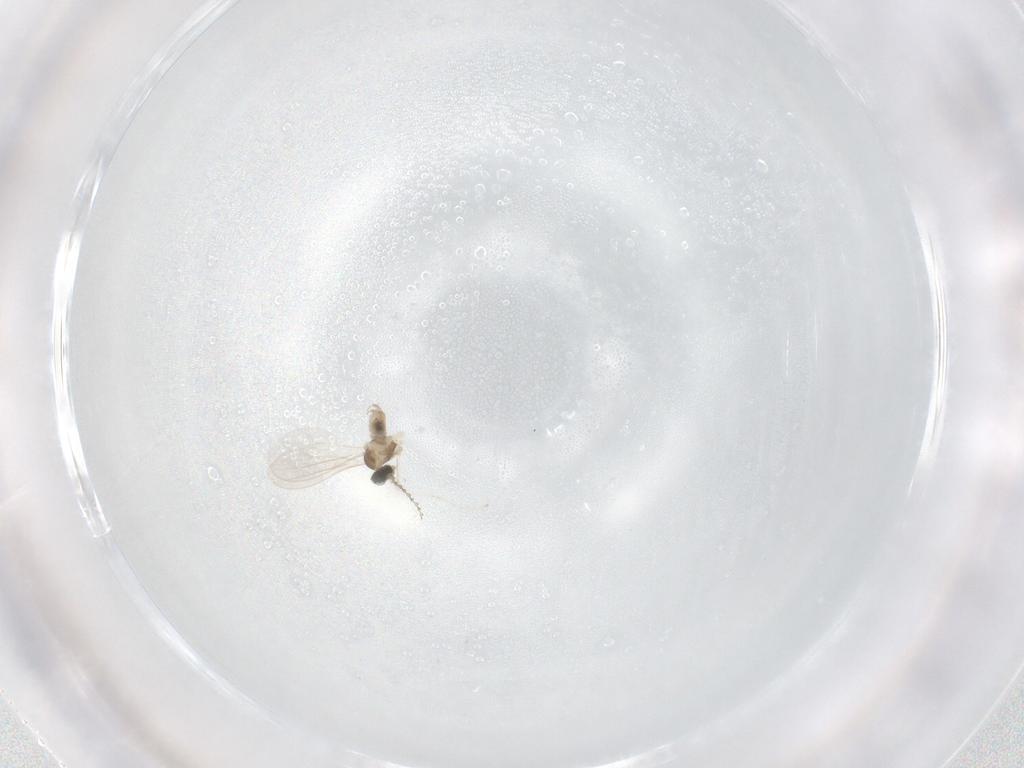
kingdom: Animalia
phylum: Arthropoda
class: Insecta
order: Diptera
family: Cecidomyiidae
